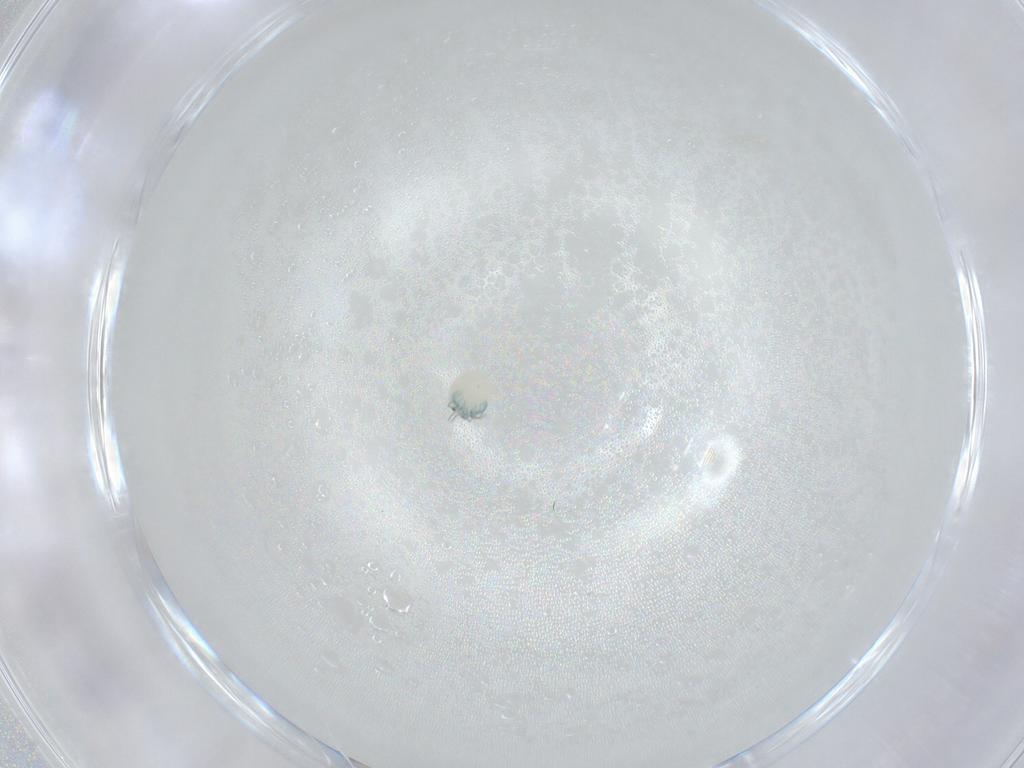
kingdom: Animalia
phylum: Arthropoda
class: Arachnida
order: Trombidiformes
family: Arrenuridae
